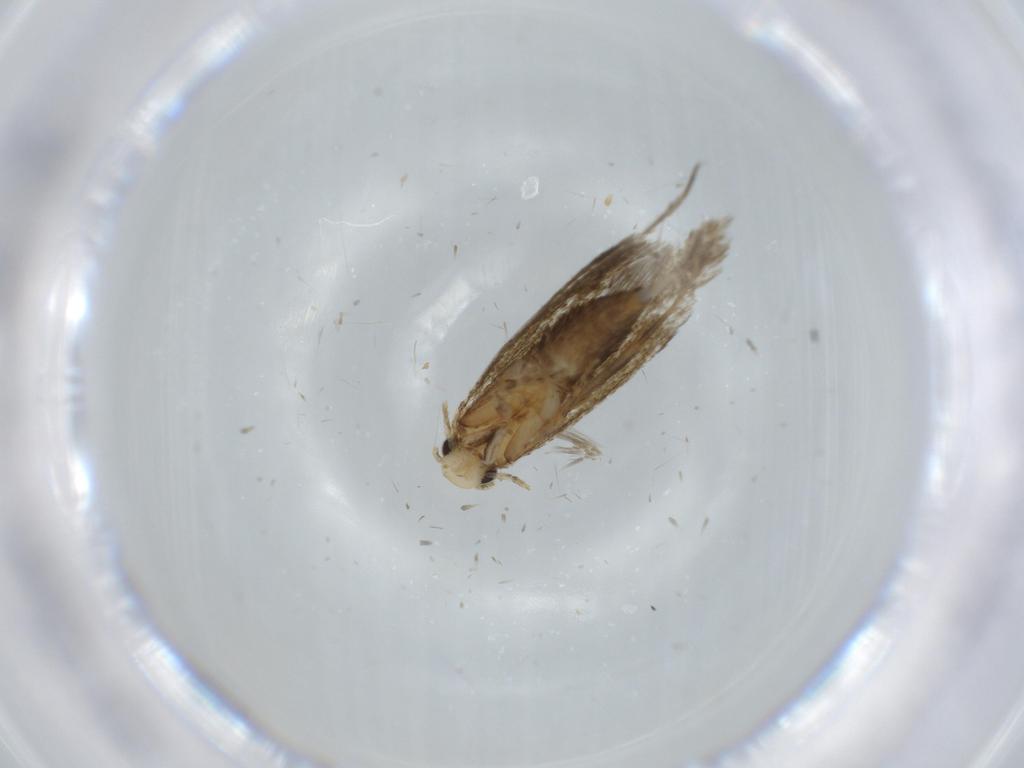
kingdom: Animalia
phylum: Arthropoda
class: Insecta
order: Lepidoptera
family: Tineidae
